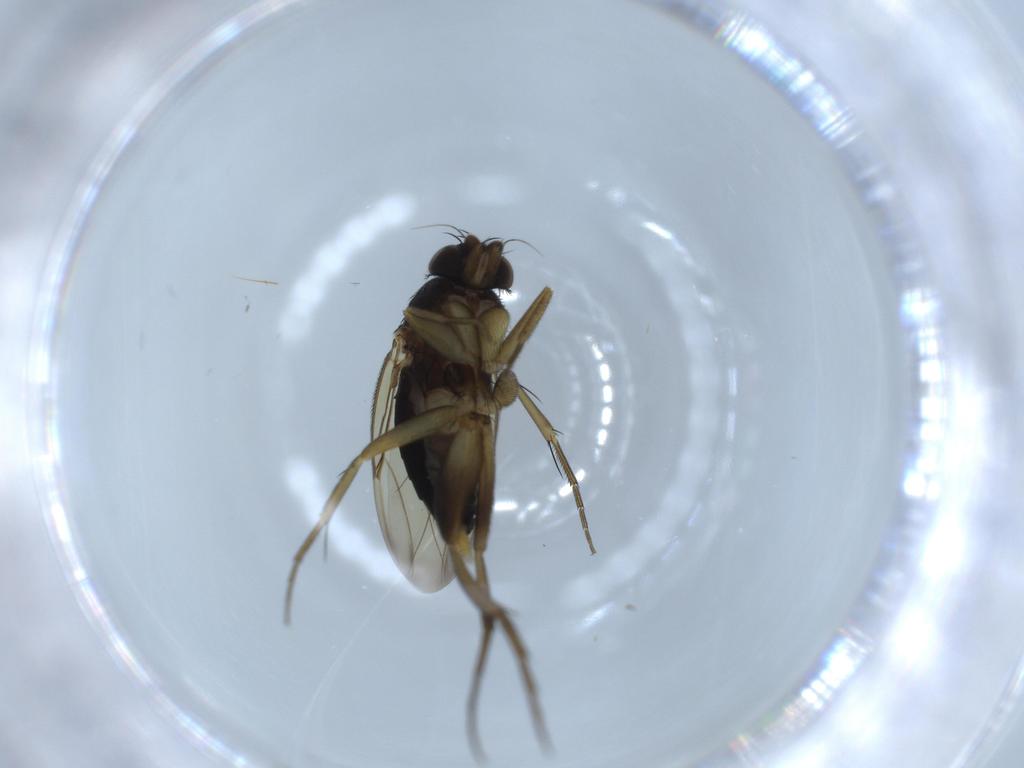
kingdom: Animalia
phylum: Arthropoda
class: Insecta
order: Diptera
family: Phoridae
